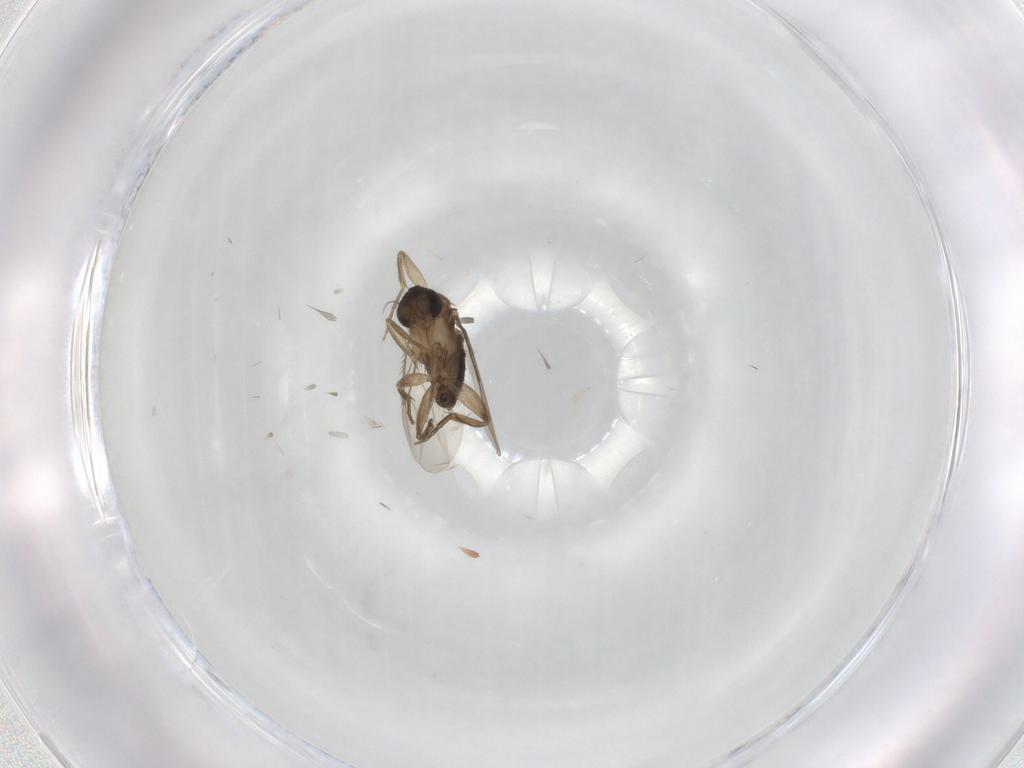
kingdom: Animalia
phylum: Arthropoda
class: Insecta
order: Diptera
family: Phoridae
